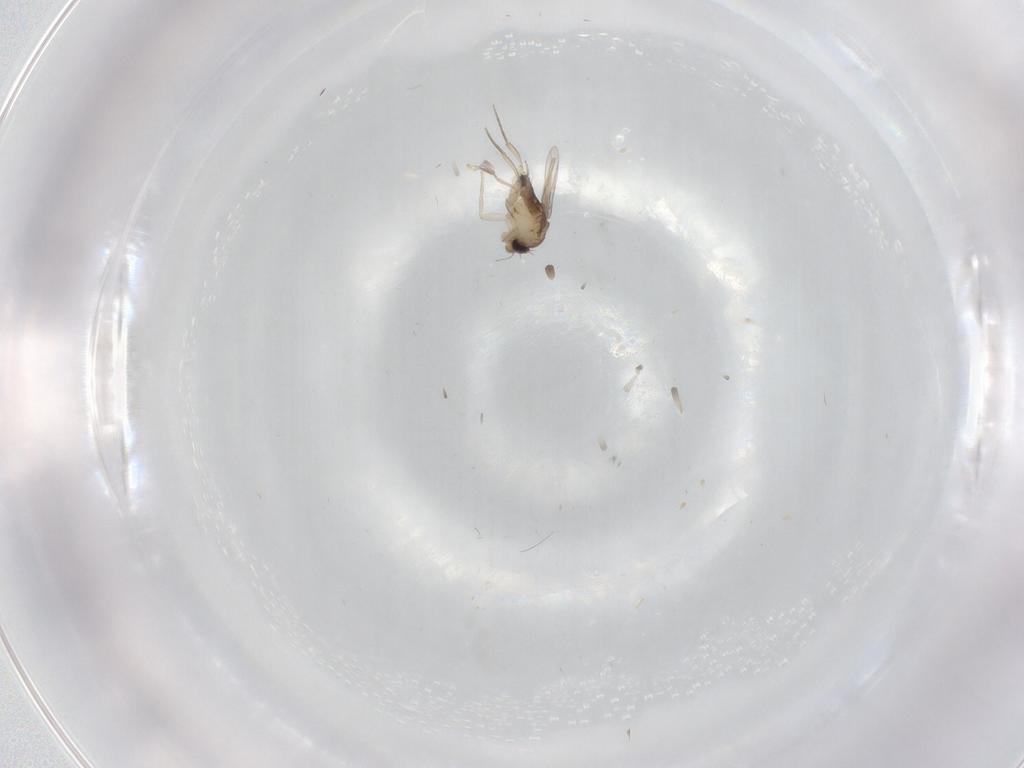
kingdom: Animalia
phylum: Arthropoda
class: Insecta
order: Diptera
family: Phoridae
